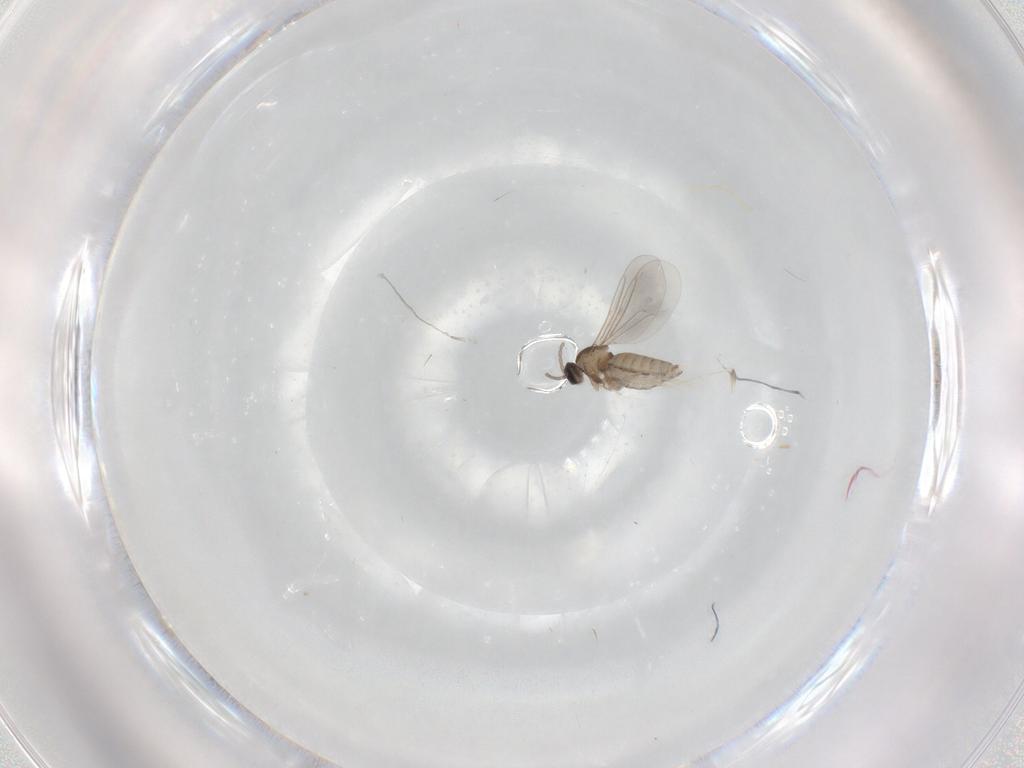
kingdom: Animalia
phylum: Arthropoda
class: Insecta
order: Diptera
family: Cecidomyiidae
